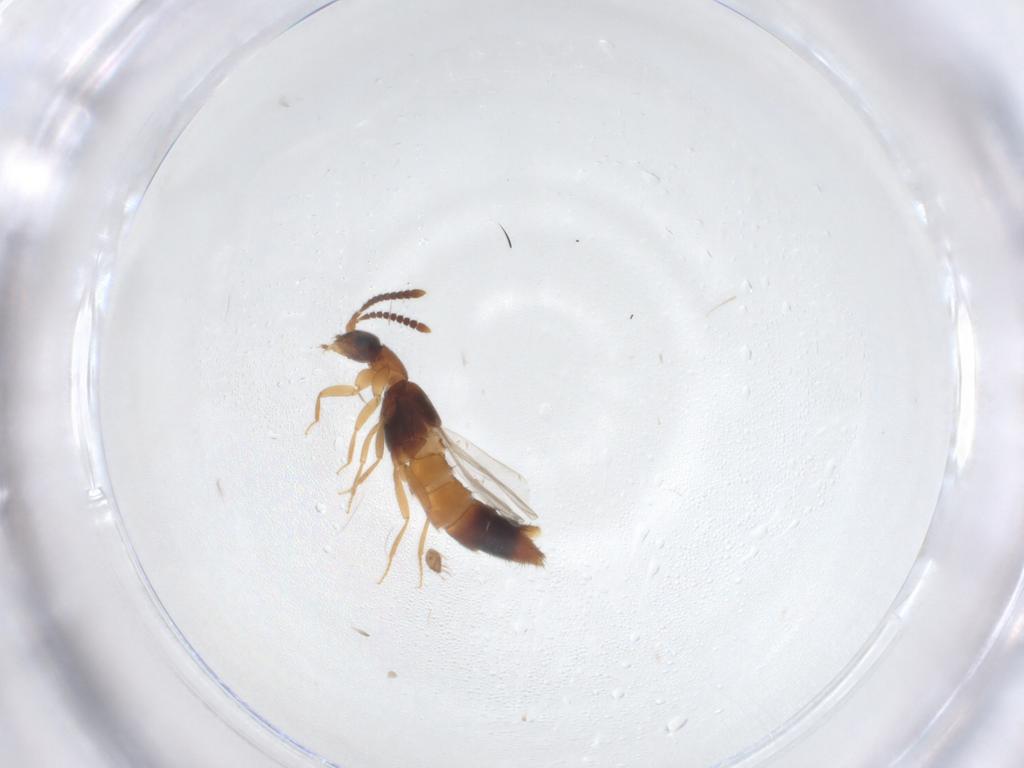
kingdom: Animalia
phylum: Arthropoda
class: Insecta
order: Coleoptera
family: Staphylinidae
